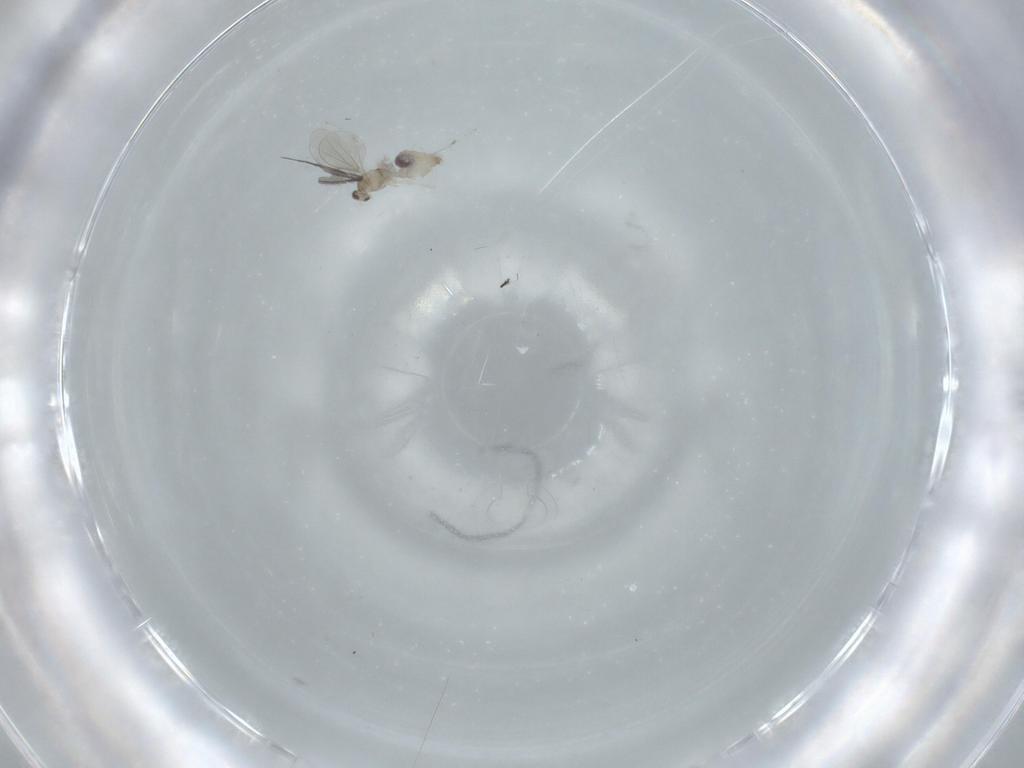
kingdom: Animalia
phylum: Arthropoda
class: Insecta
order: Diptera
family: Cecidomyiidae
